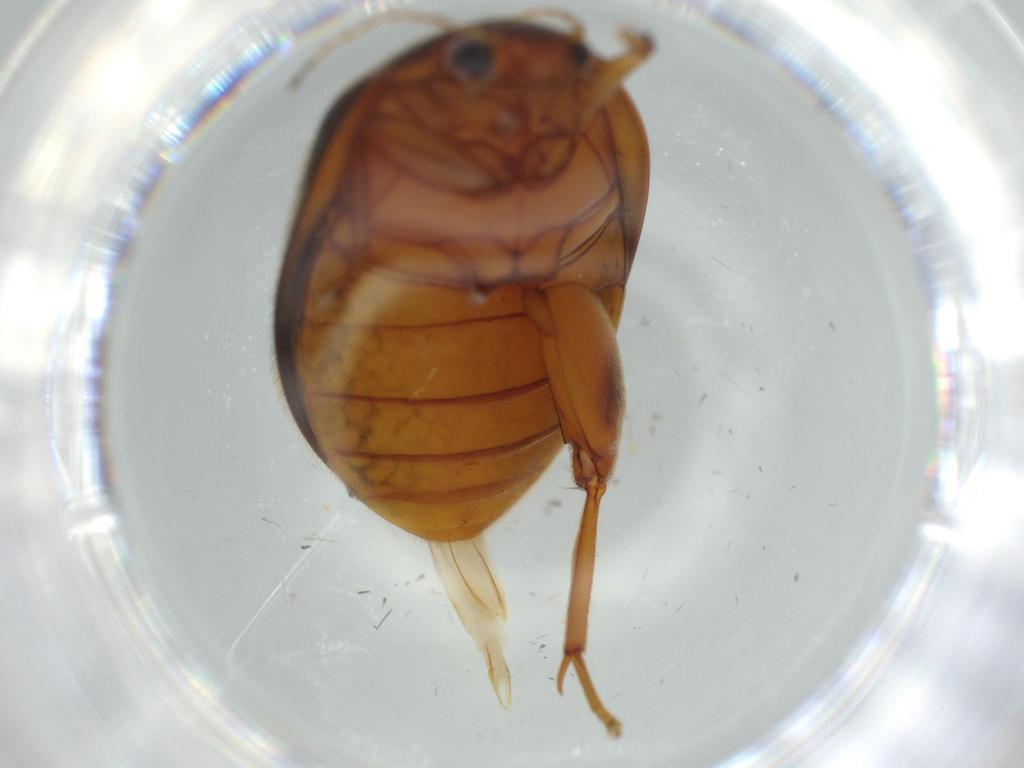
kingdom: Animalia
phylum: Arthropoda
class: Insecta
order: Coleoptera
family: Scirtidae
